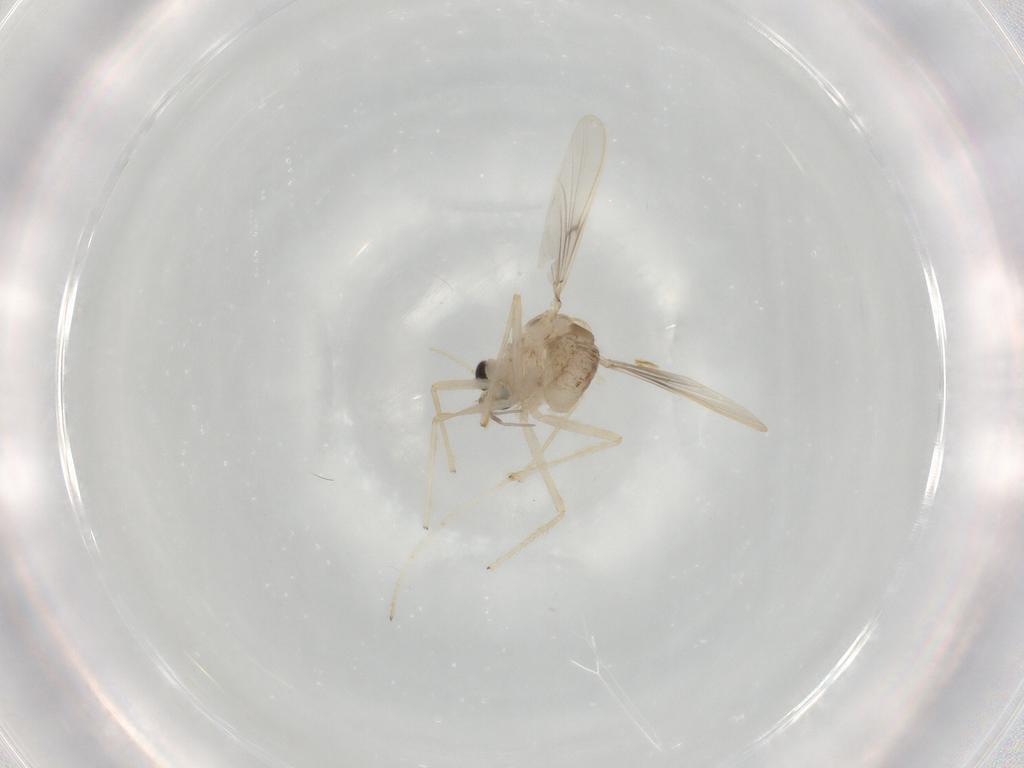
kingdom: Animalia
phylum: Arthropoda
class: Insecta
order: Diptera
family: Chironomidae
